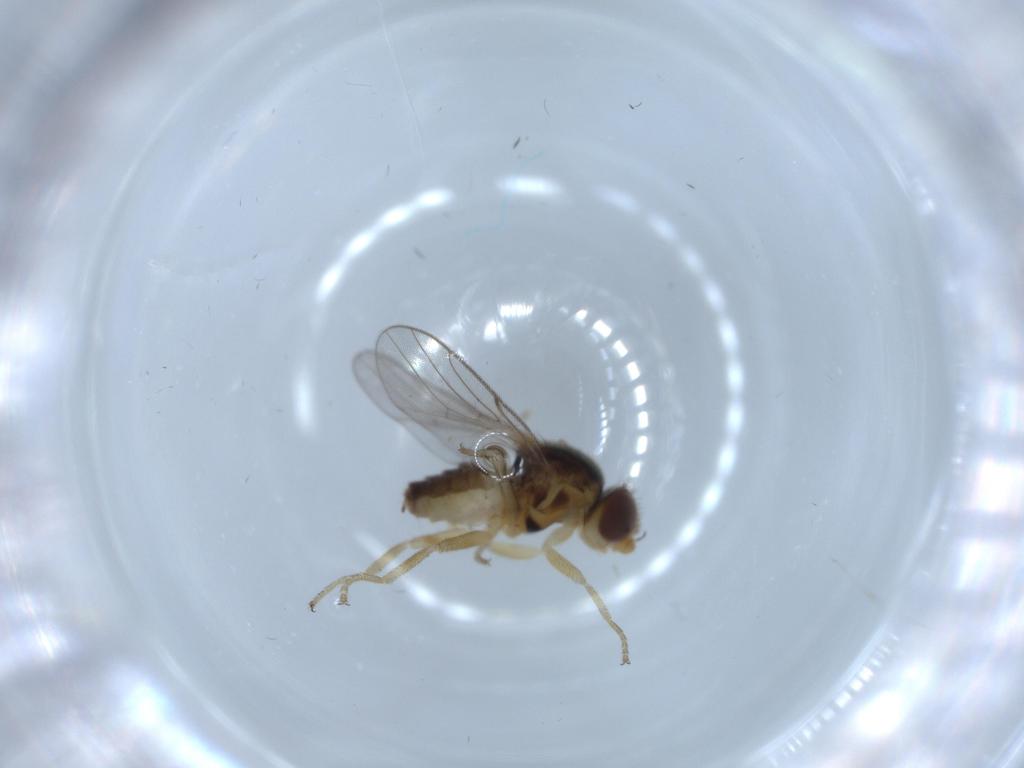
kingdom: Animalia
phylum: Arthropoda
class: Insecta
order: Diptera
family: Chloropidae
